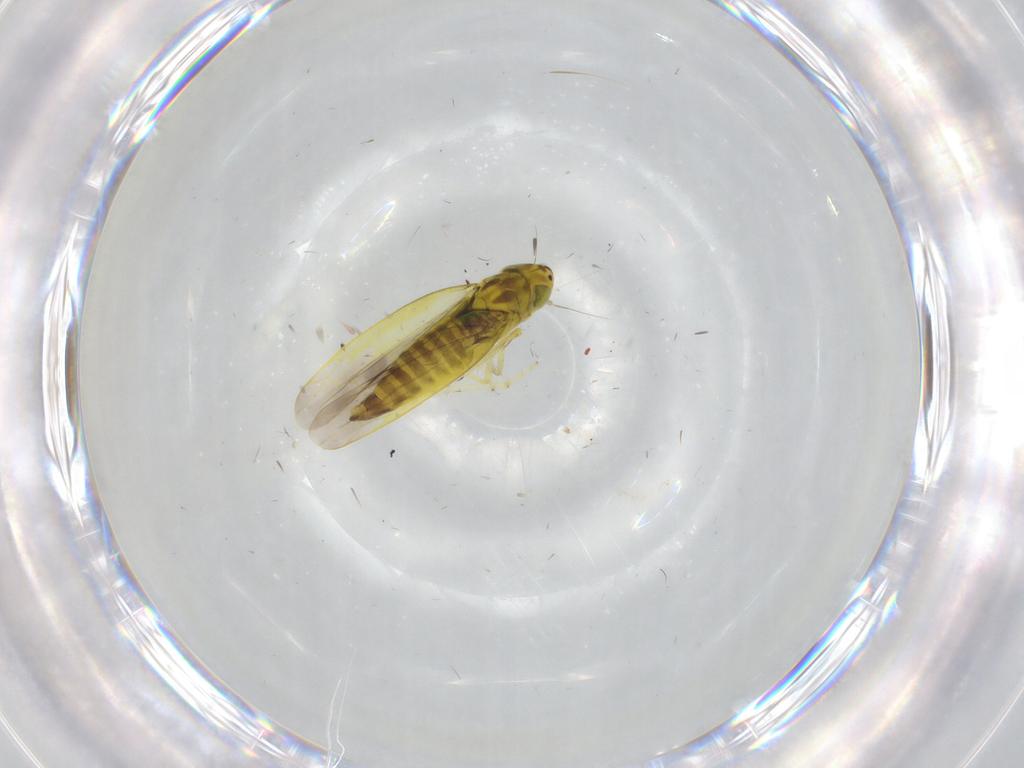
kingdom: Animalia
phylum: Arthropoda
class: Insecta
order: Hemiptera
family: Cicadellidae
